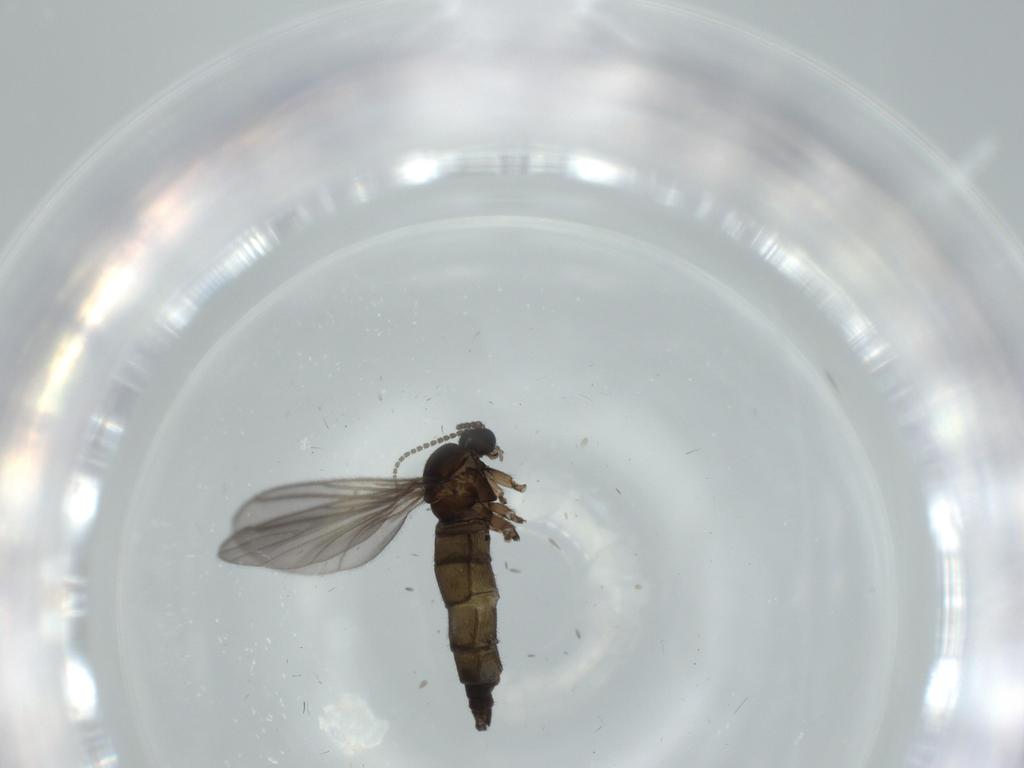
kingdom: Animalia
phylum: Arthropoda
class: Insecta
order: Diptera
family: Sciaridae
